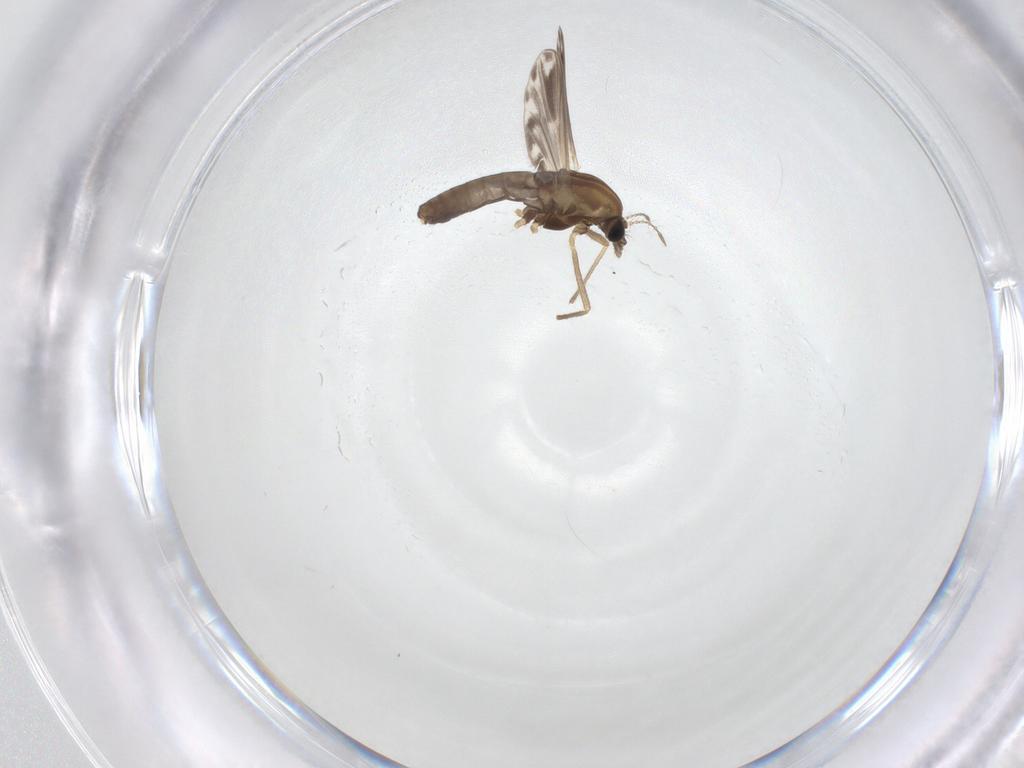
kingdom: Animalia
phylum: Arthropoda
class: Insecta
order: Diptera
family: Chironomidae
